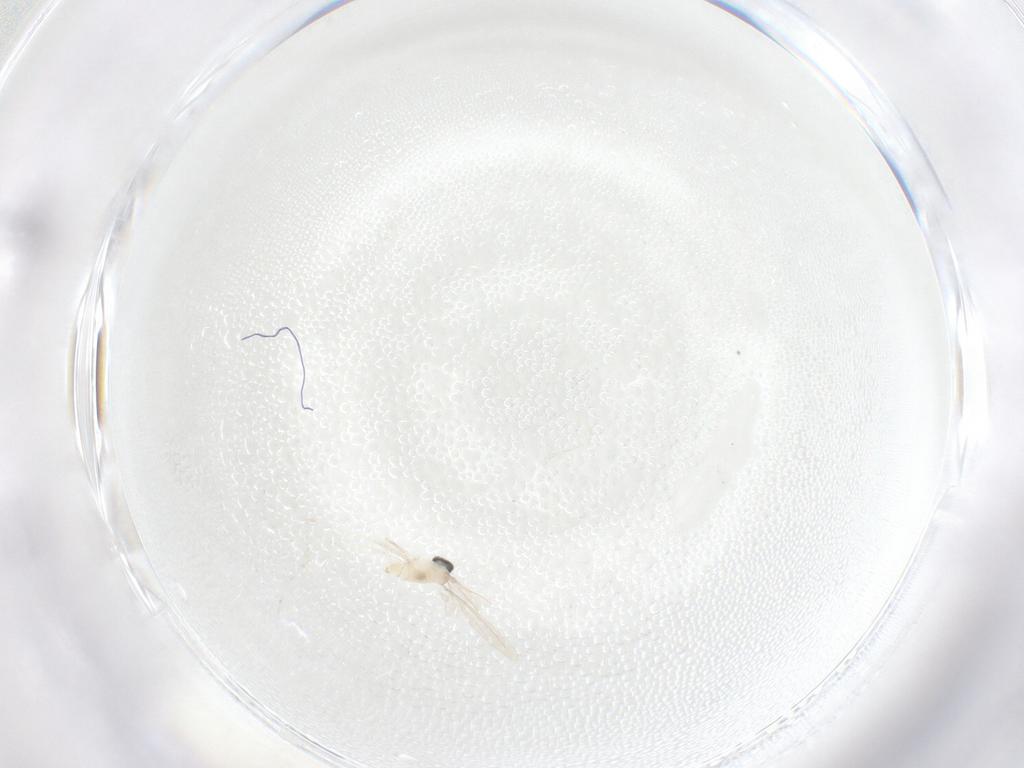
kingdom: Animalia
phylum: Arthropoda
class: Insecta
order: Diptera
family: Cecidomyiidae
